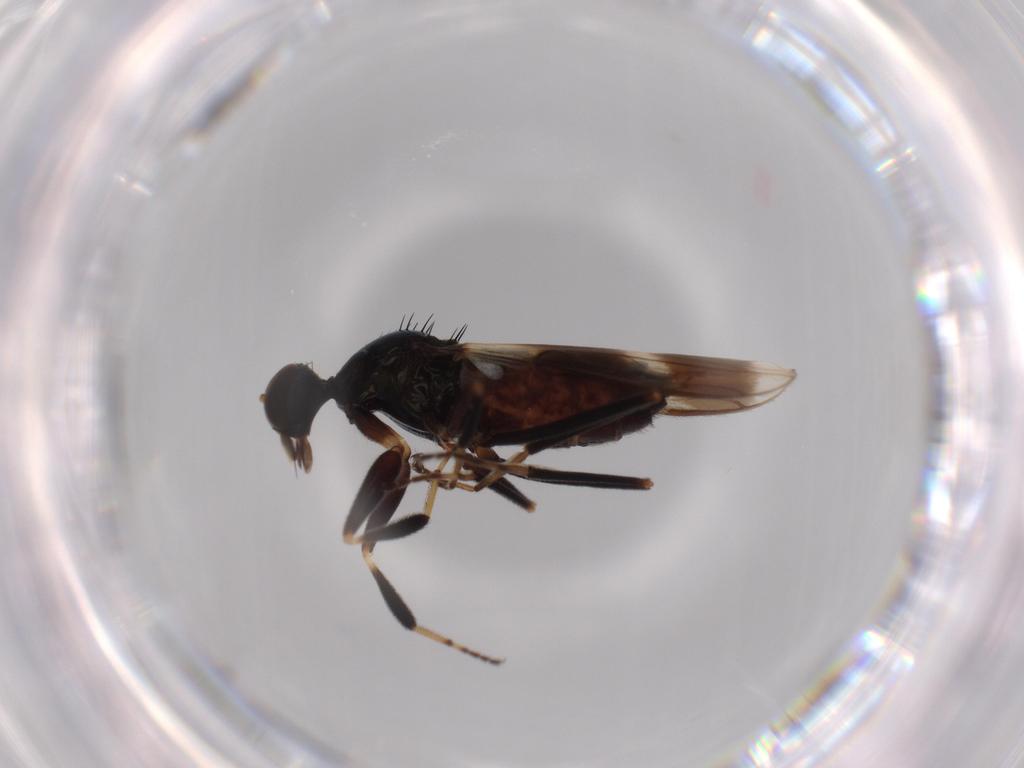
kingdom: Animalia
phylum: Arthropoda
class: Insecta
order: Diptera
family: Hybotidae
